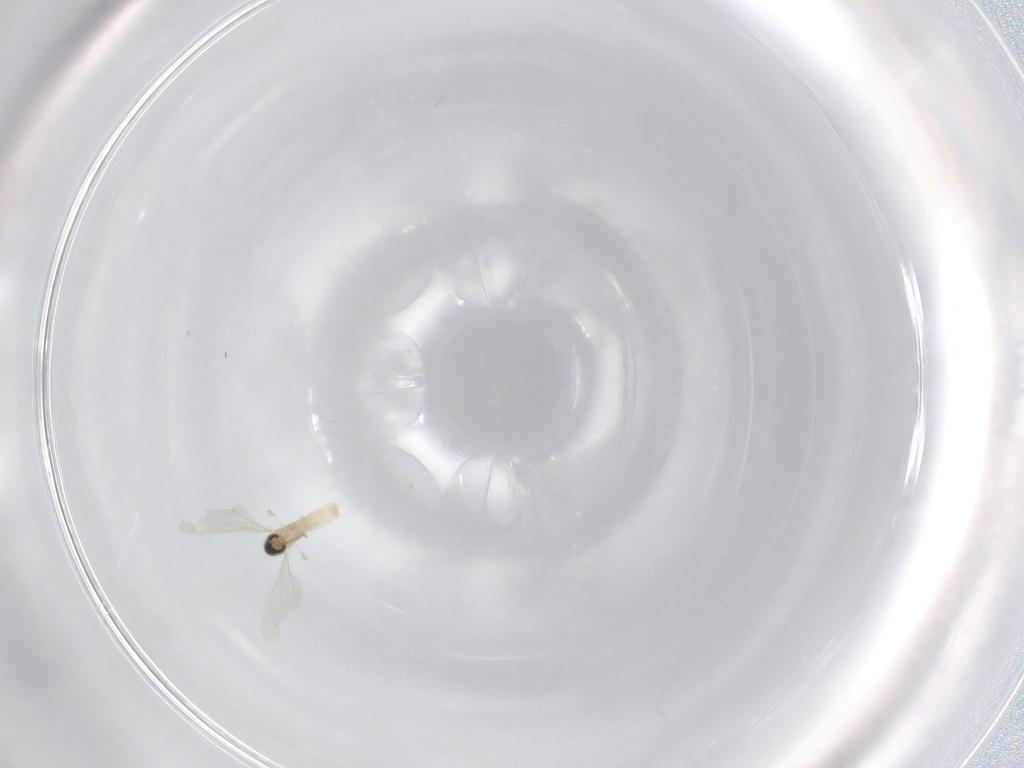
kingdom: Animalia
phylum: Arthropoda
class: Insecta
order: Diptera
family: Cecidomyiidae
